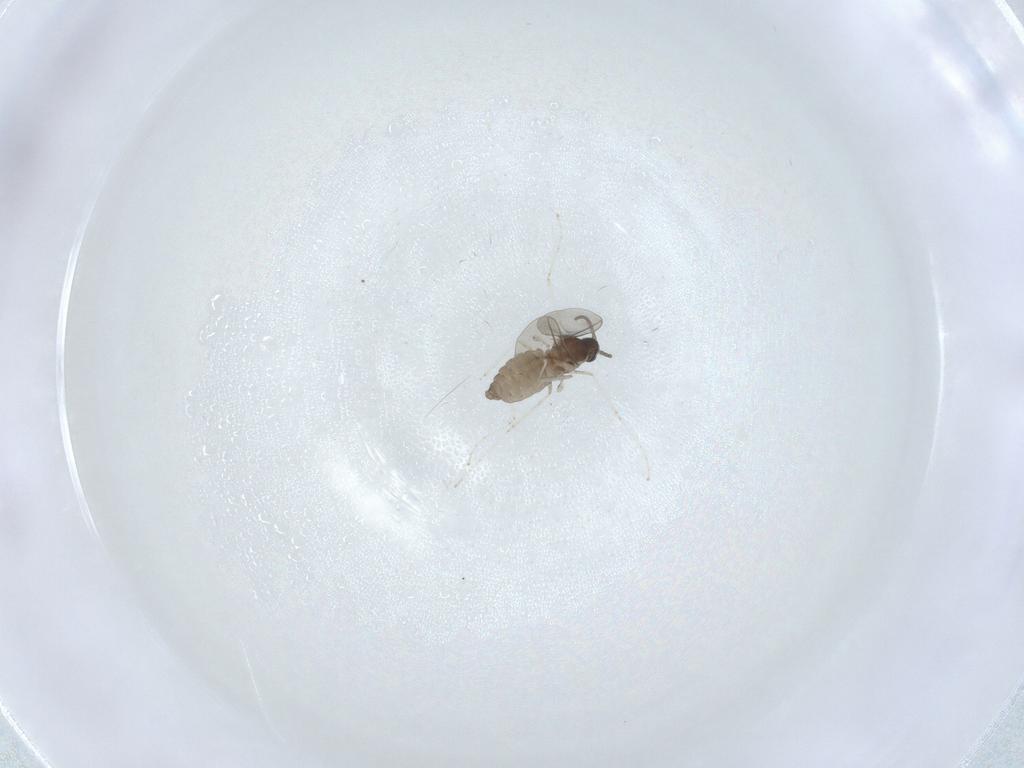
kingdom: Animalia
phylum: Arthropoda
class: Insecta
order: Diptera
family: Cecidomyiidae
